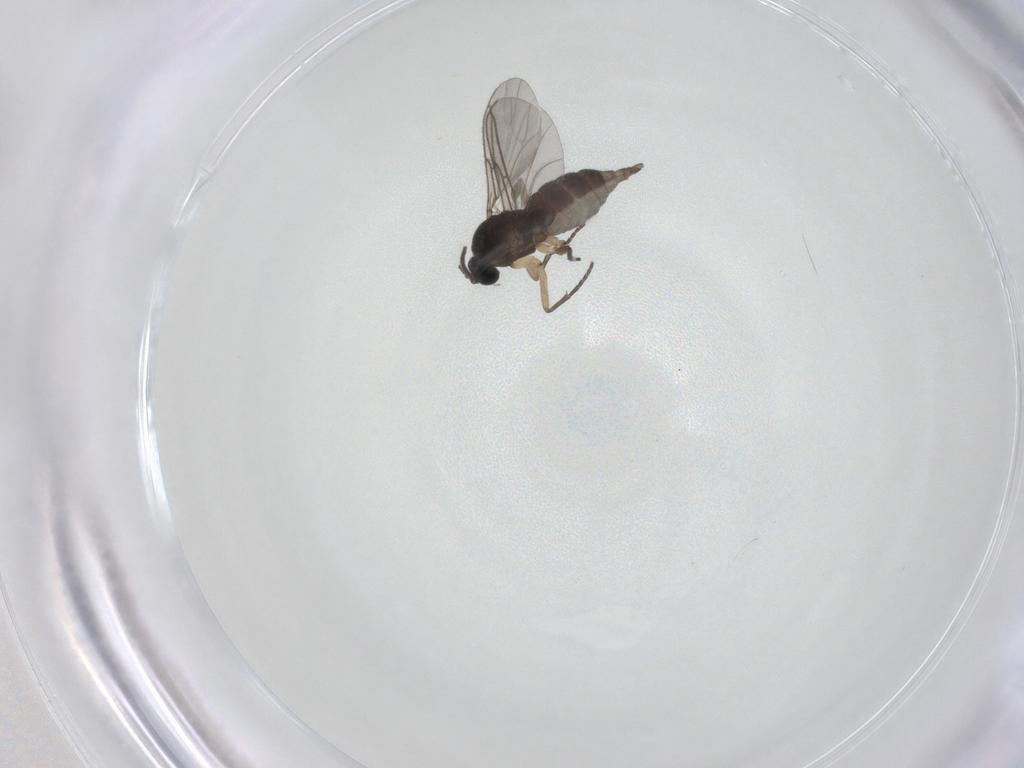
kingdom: Animalia
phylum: Arthropoda
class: Insecta
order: Diptera
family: Sciaridae
